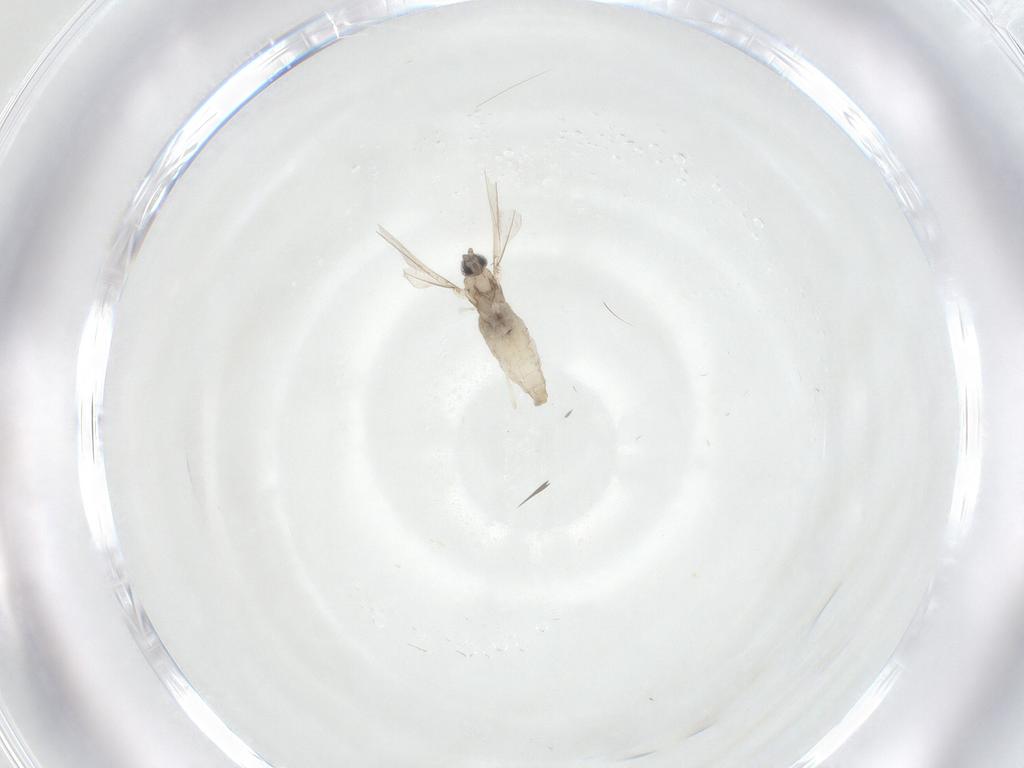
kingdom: Animalia
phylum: Arthropoda
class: Insecta
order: Diptera
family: Cecidomyiidae
